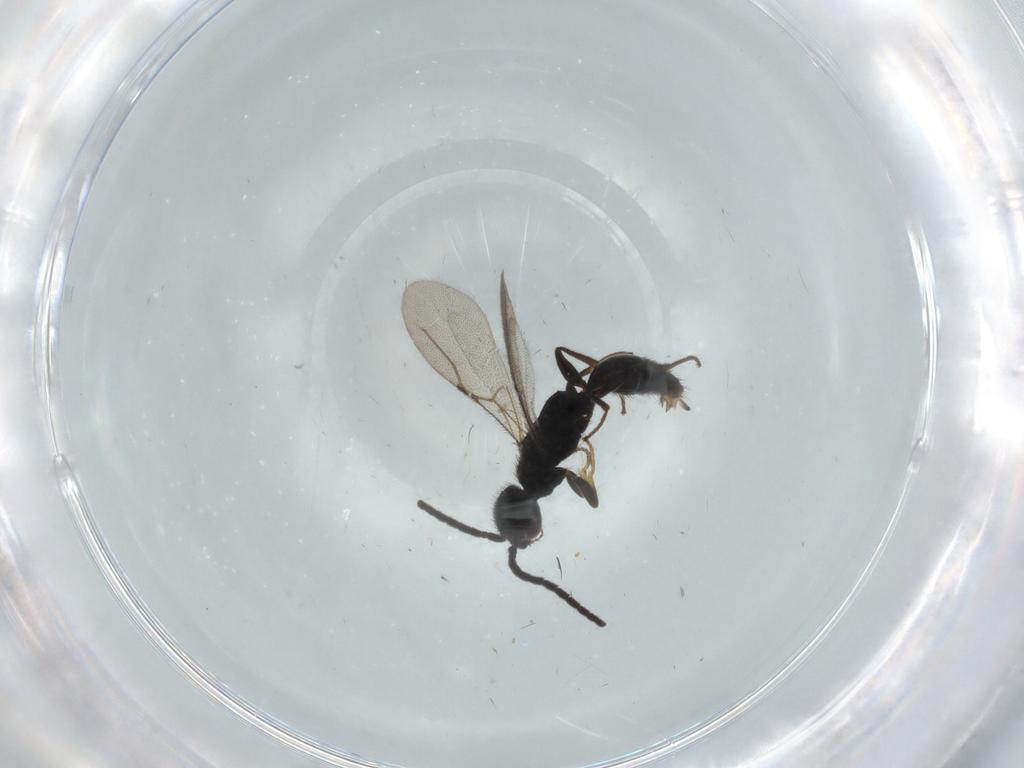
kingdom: Animalia
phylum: Arthropoda
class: Insecta
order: Hymenoptera
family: Bethylidae
